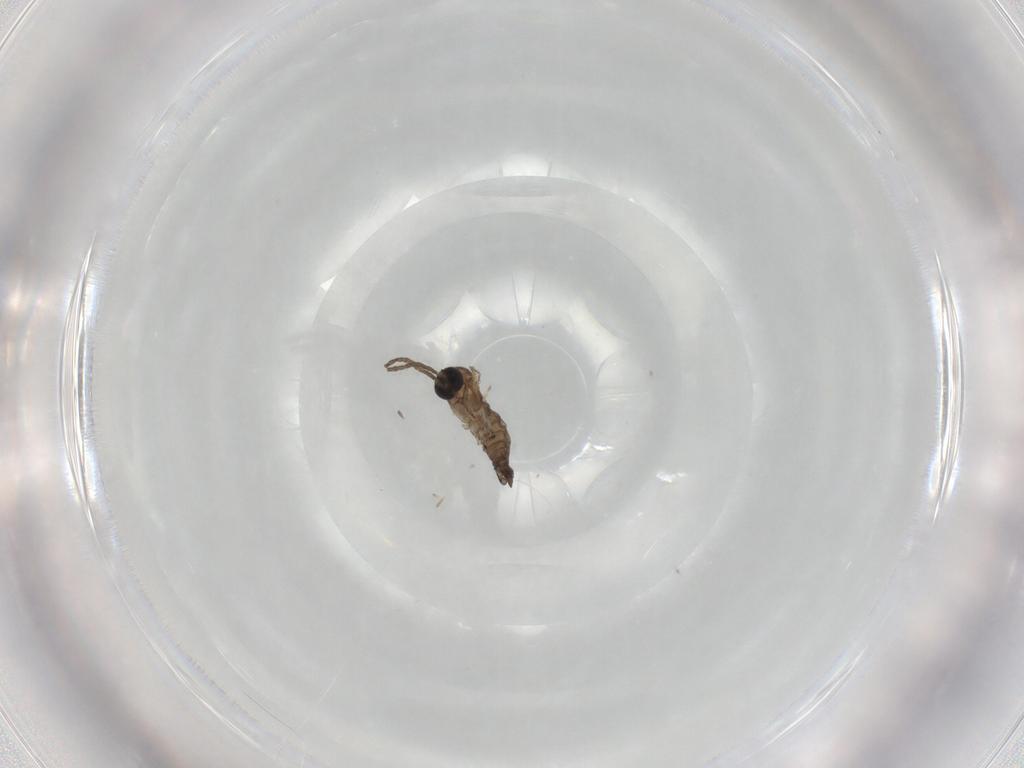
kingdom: Animalia
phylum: Arthropoda
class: Insecta
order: Diptera
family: Sciaridae
